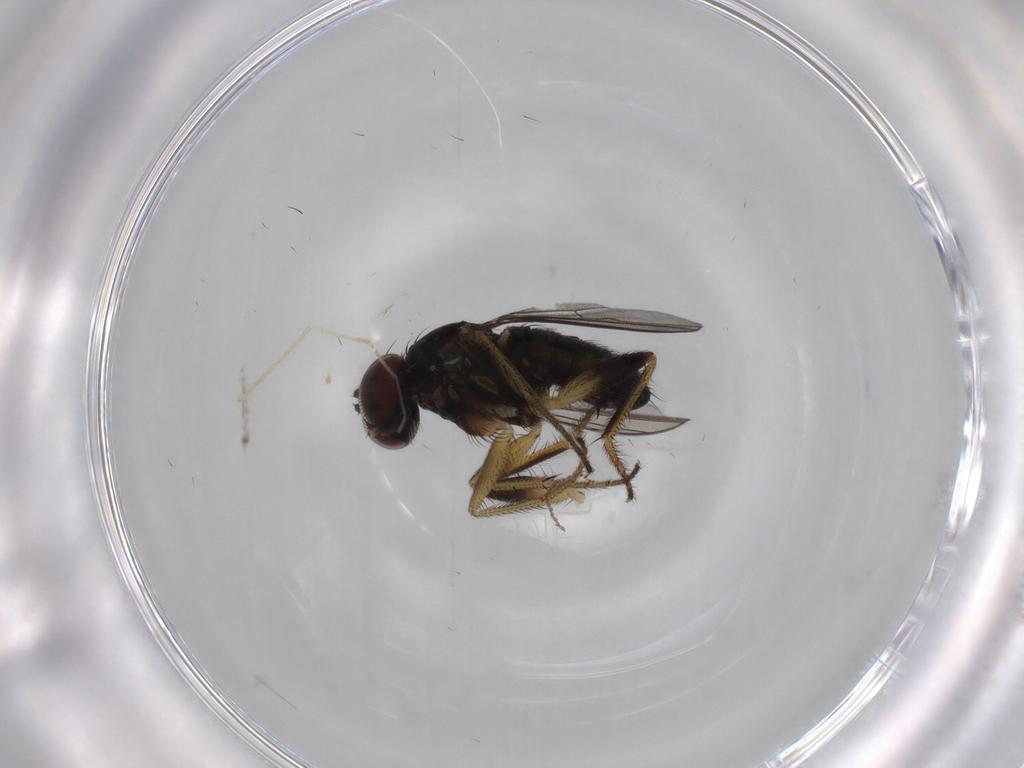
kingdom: Animalia
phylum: Arthropoda
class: Insecta
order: Diptera
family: Dolichopodidae
